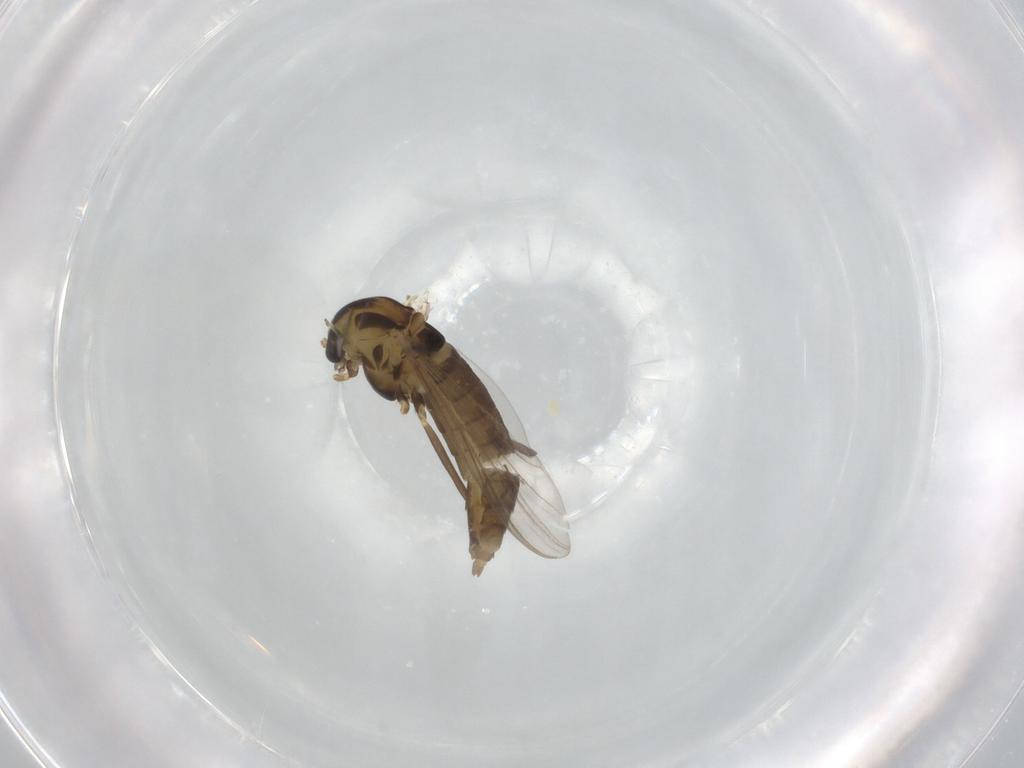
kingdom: Animalia
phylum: Arthropoda
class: Insecta
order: Diptera
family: Chironomidae
